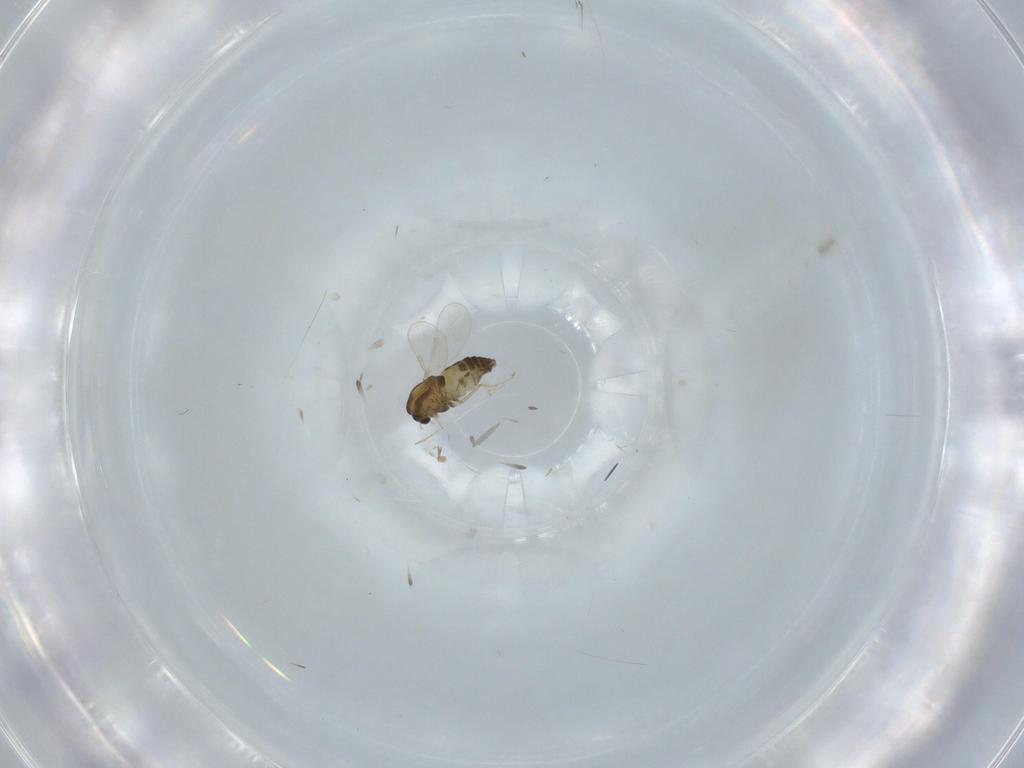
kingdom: Animalia
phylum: Arthropoda
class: Insecta
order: Diptera
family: Chironomidae
